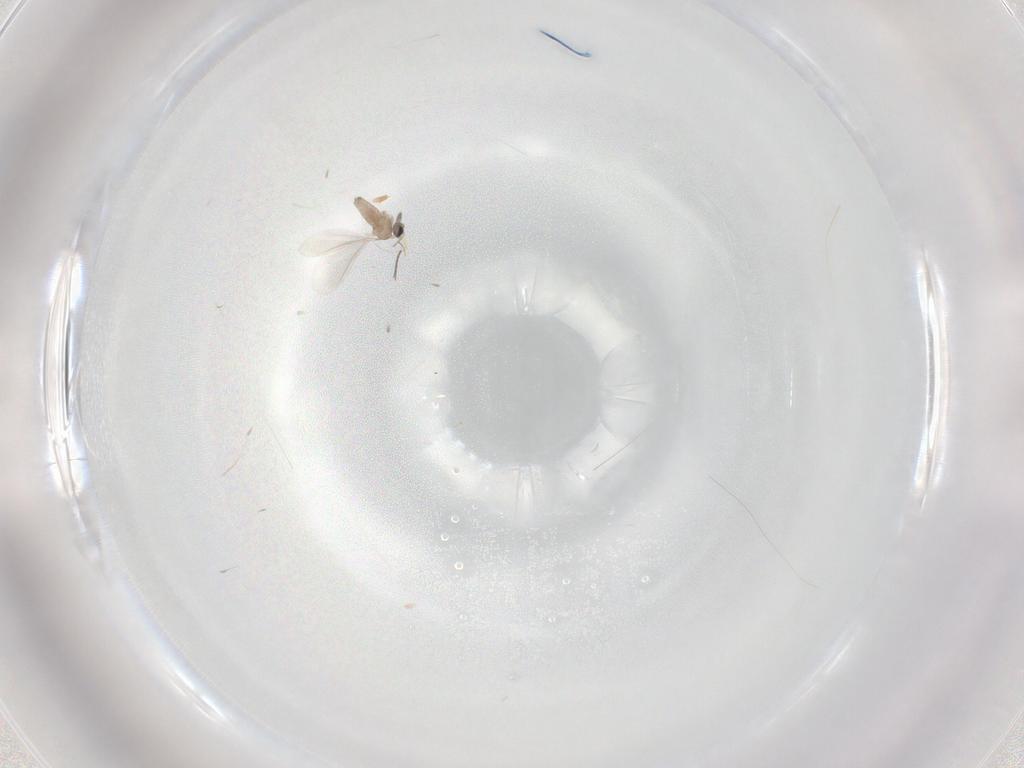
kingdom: Animalia
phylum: Arthropoda
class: Insecta
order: Diptera
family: Sciaridae
